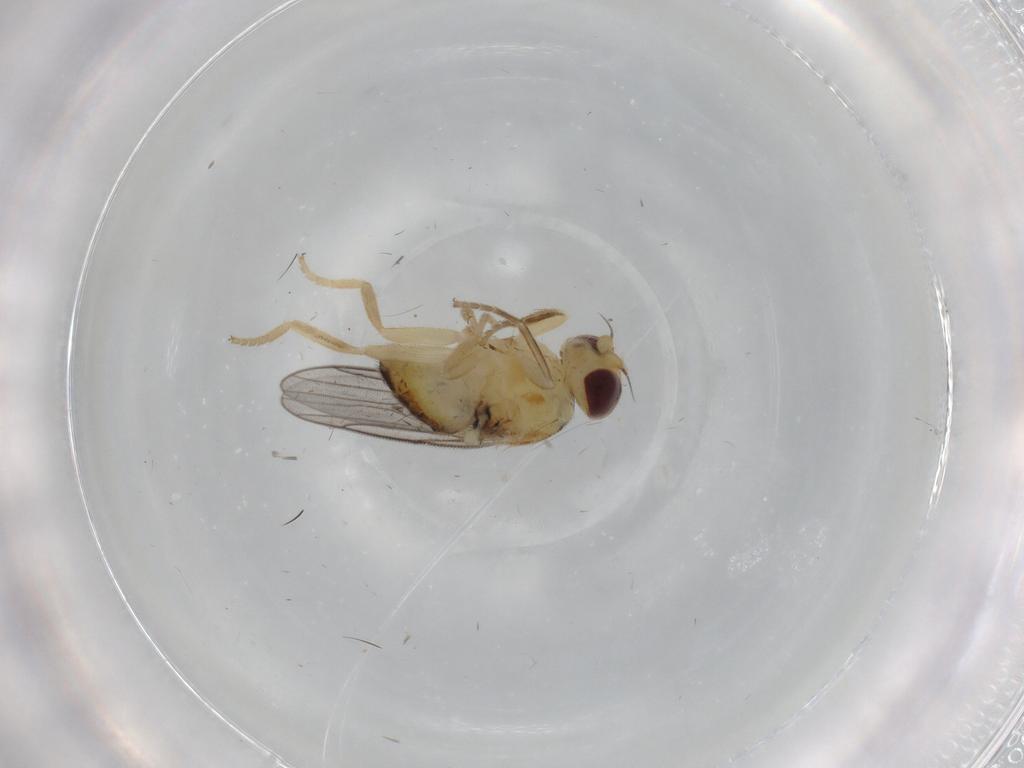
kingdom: Animalia
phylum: Arthropoda
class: Insecta
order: Diptera
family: Chloropidae
